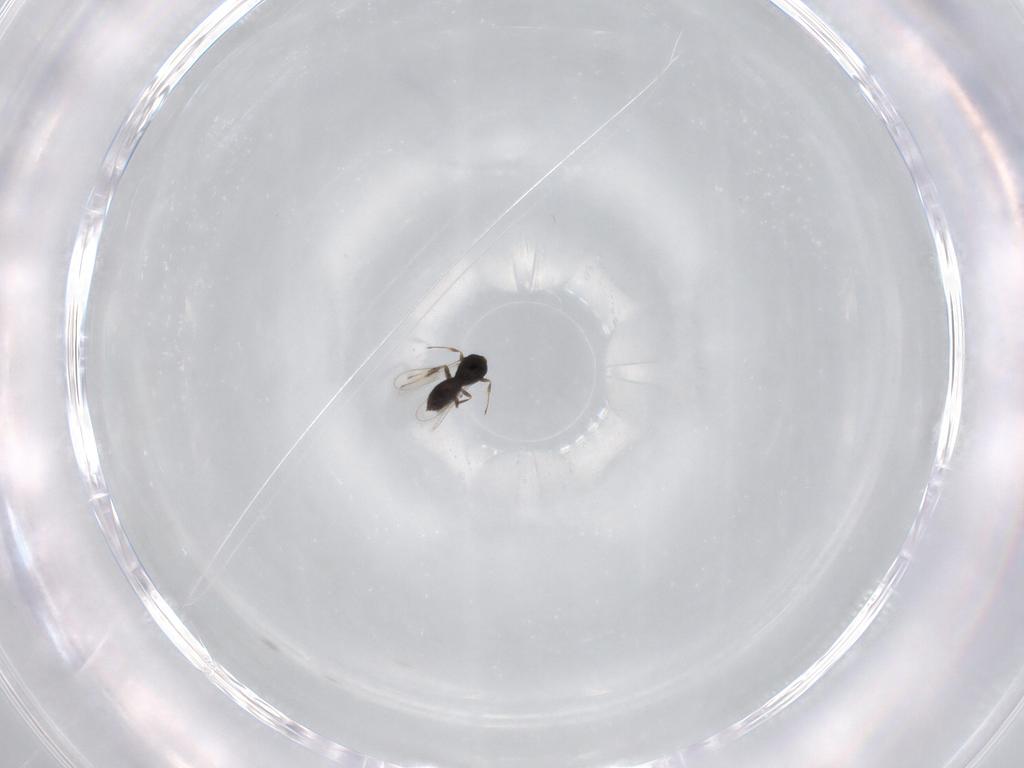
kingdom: Animalia
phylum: Arthropoda
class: Insecta
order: Hymenoptera
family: Scelionidae
